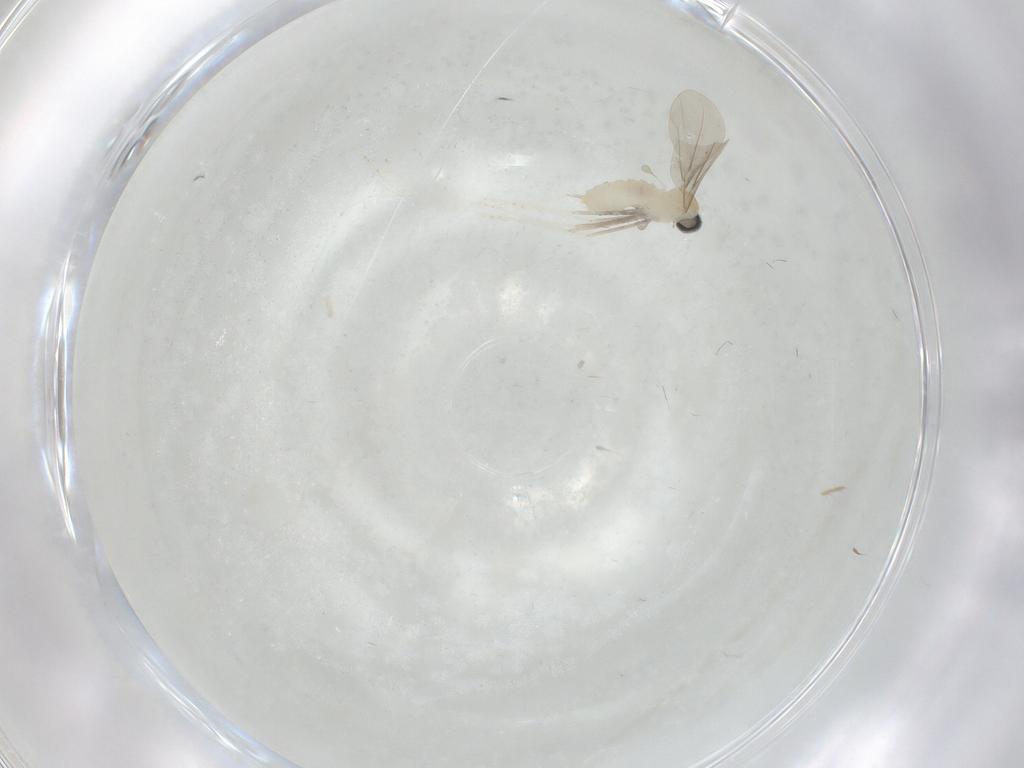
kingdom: Animalia
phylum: Arthropoda
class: Insecta
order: Diptera
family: Cecidomyiidae
